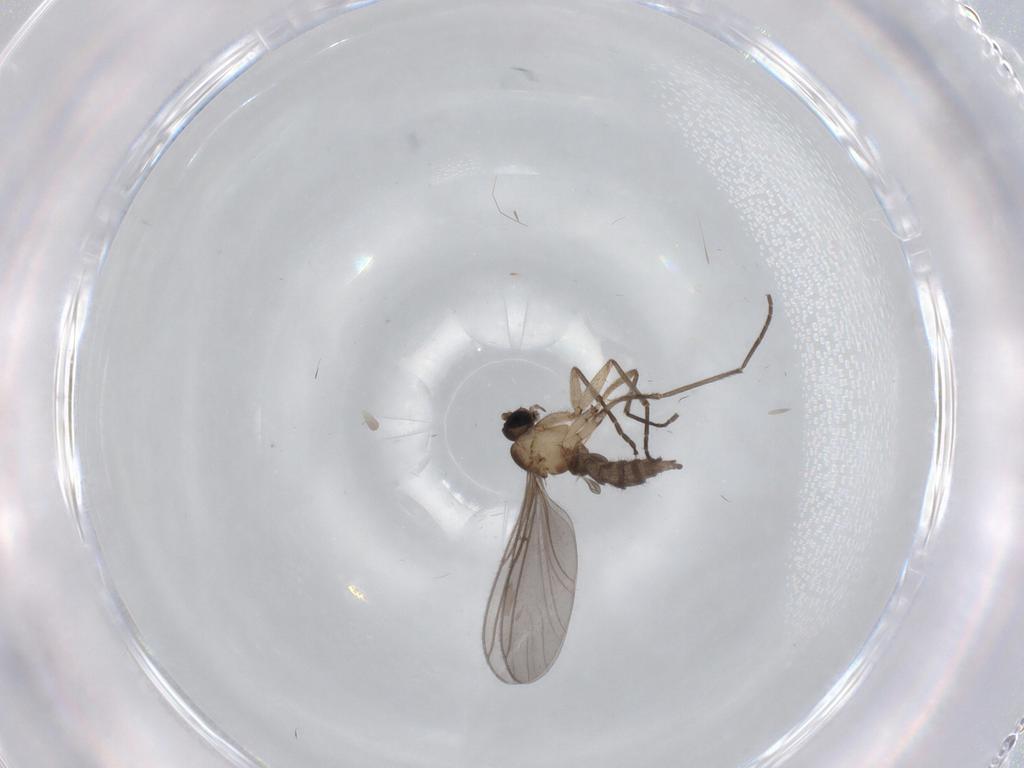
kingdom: Animalia
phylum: Arthropoda
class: Insecta
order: Diptera
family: Sciaridae
